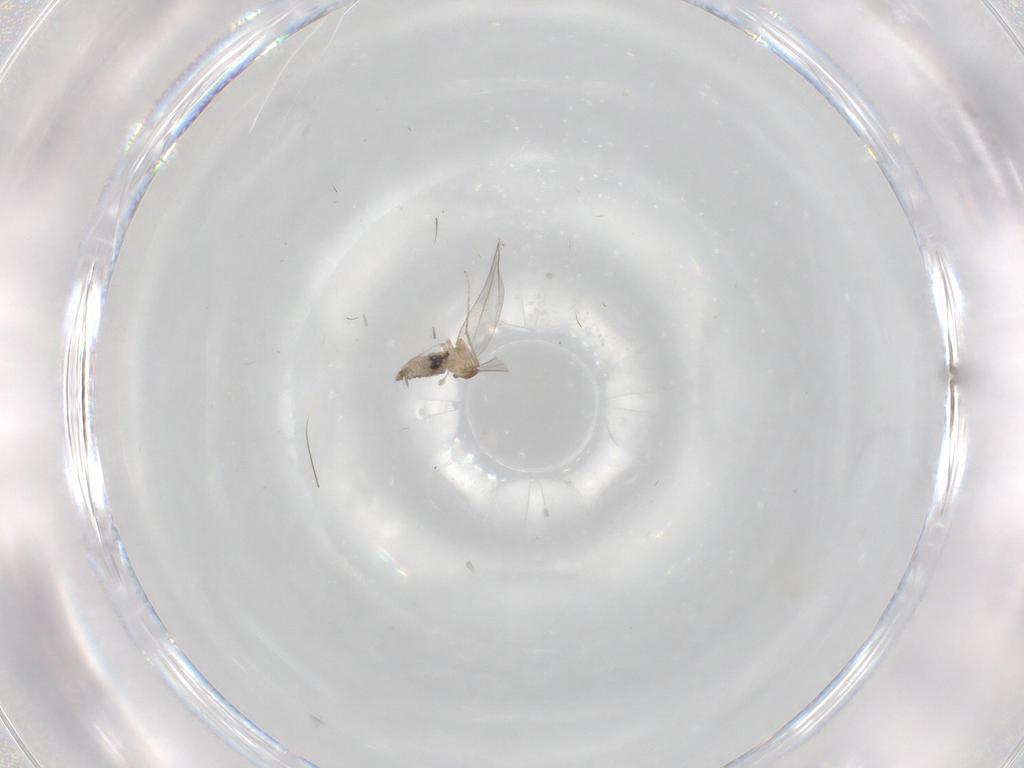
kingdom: Animalia
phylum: Arthropoda
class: Insecta
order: Diptera
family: Cecidomyiidae
